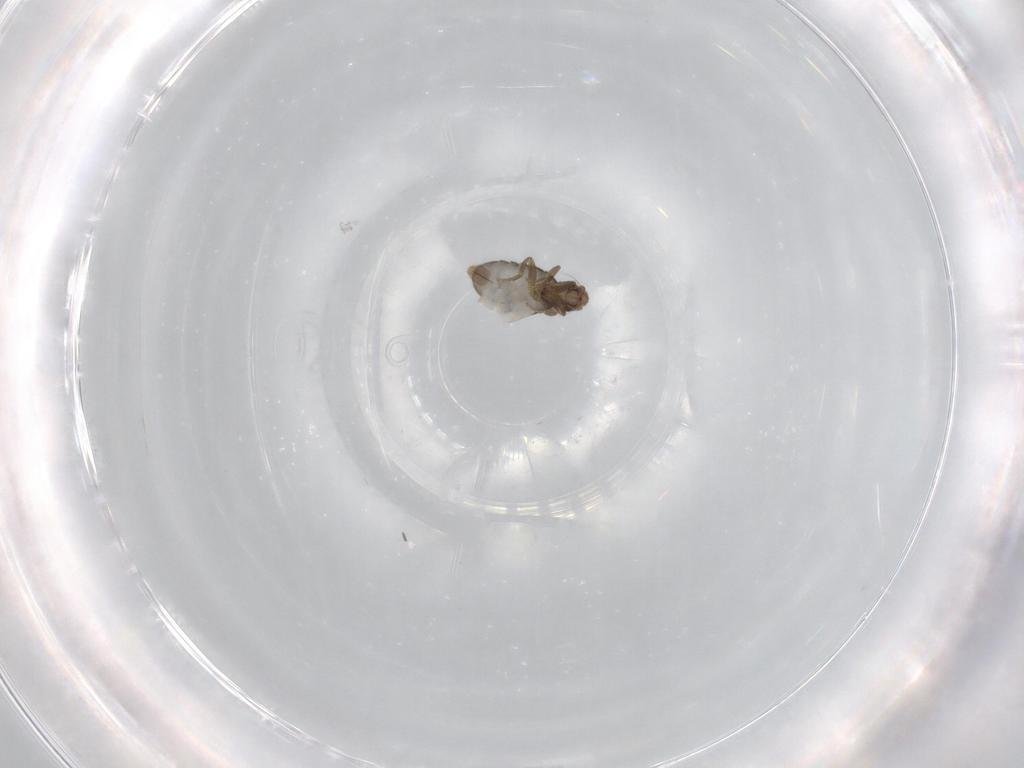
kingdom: Animalia
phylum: Arthropoda
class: Insecta
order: Diptera
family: Phoridae
